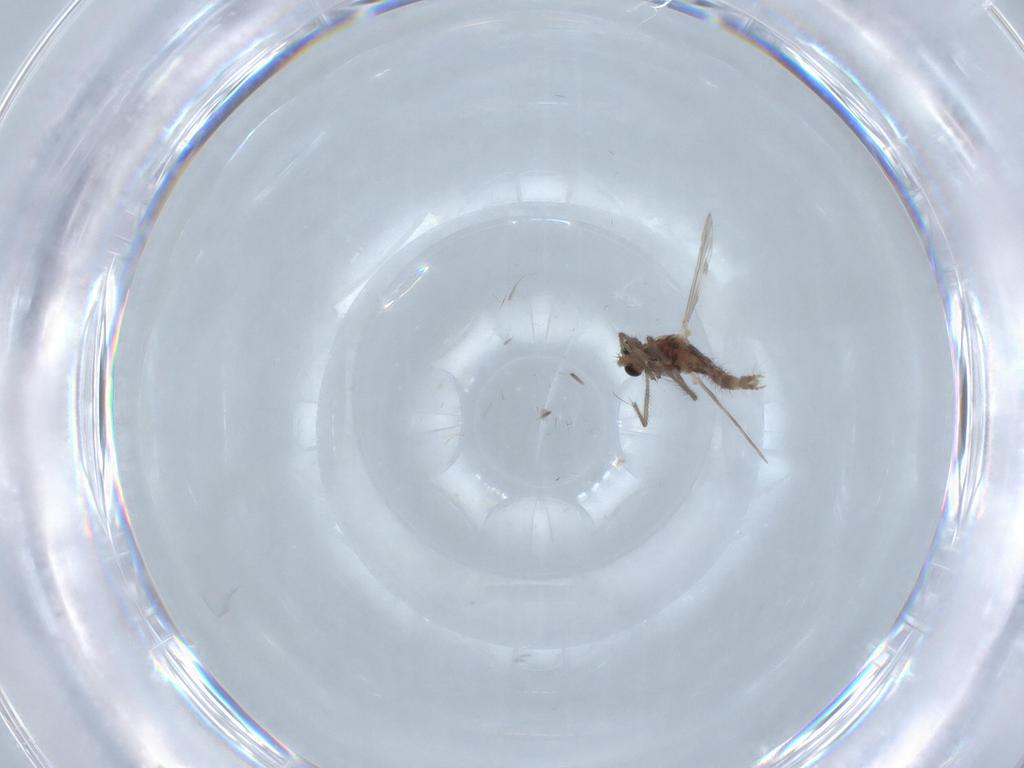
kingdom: Animalia
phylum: Arthropoda
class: Insecta
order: Diptera
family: Chironomidae
